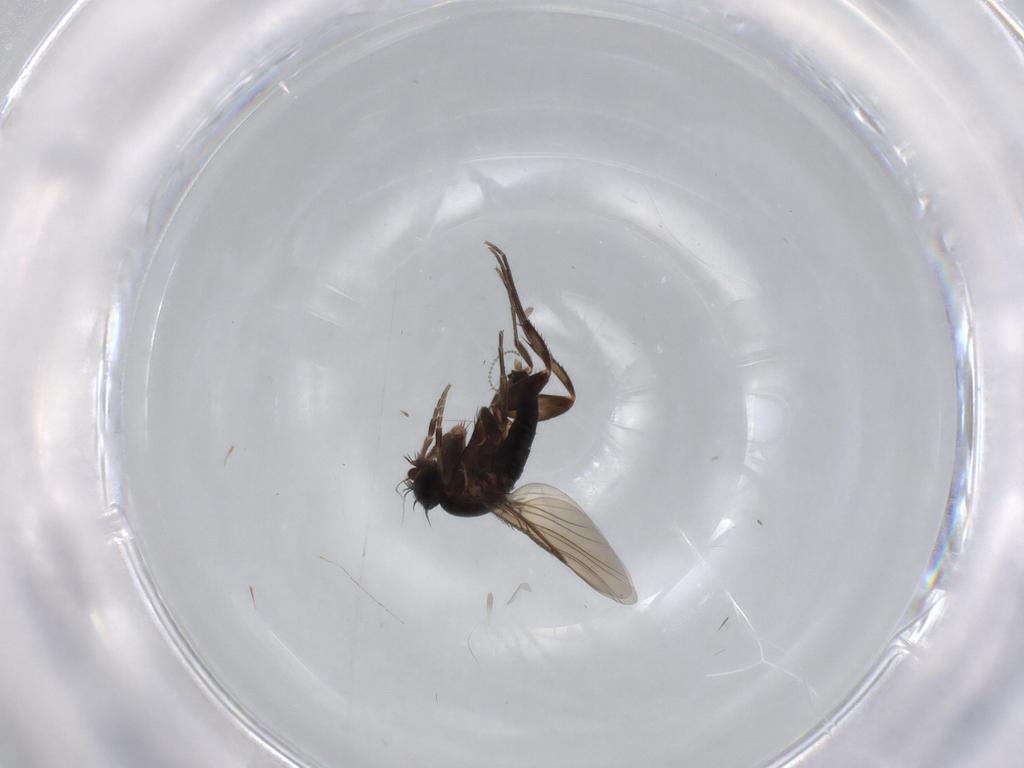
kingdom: Animalia
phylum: Arthropoda
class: Insecta
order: Diptera
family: Phoridae
